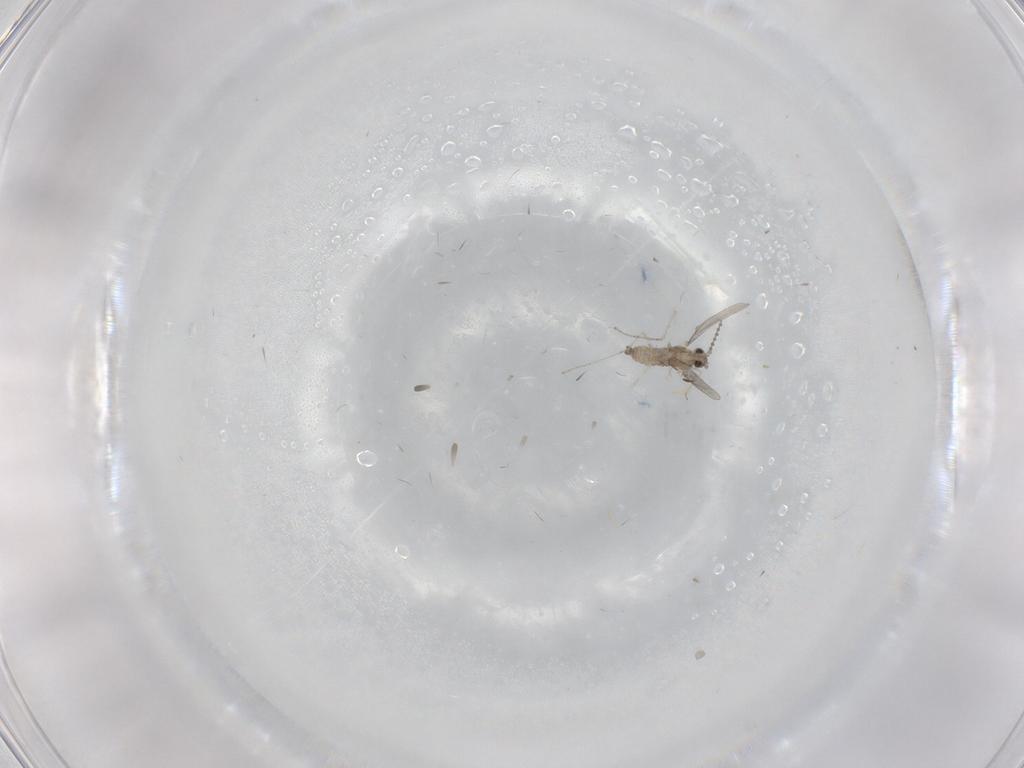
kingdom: Animalia
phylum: Arthropoda
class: Insecta
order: Diptera
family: Cecidomyiidae
